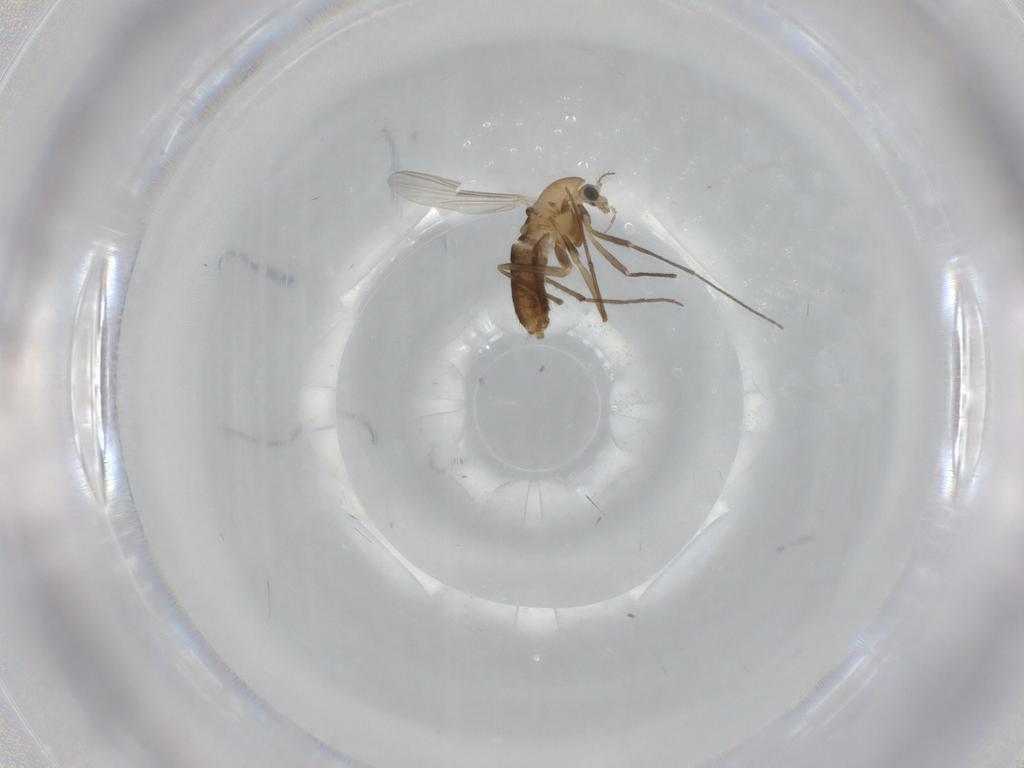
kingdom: Animalia
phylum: Arthropoda
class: Insecta
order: Diptera
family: Chironomidae
